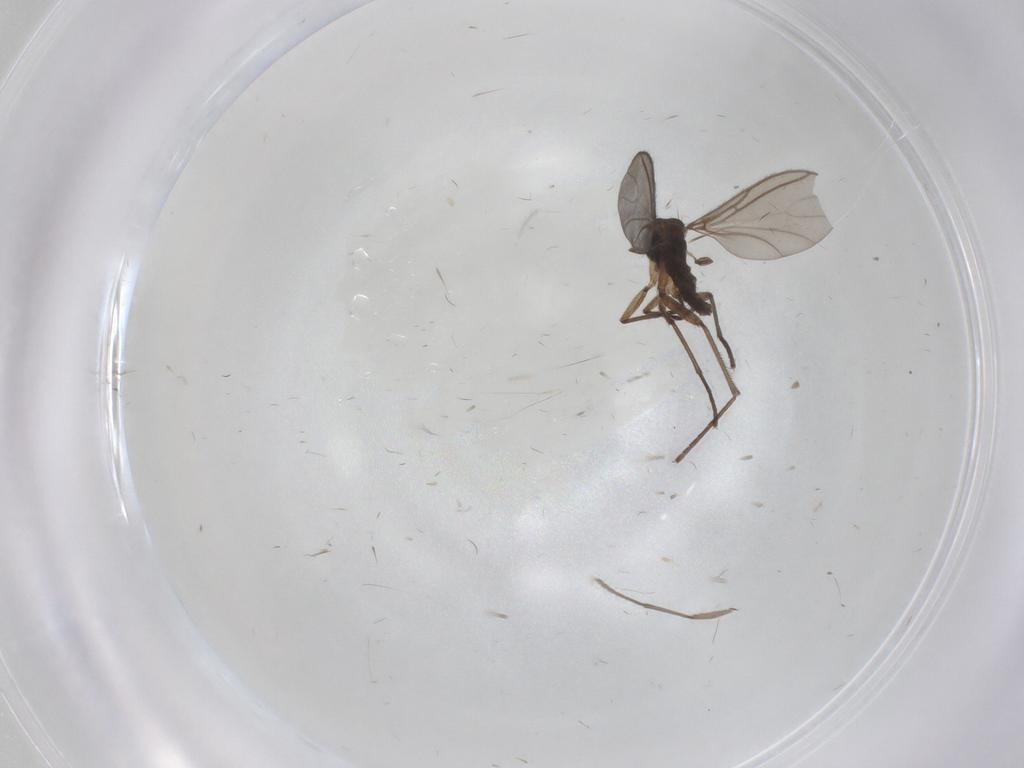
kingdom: Animalia
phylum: Arthropoda
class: Insecta
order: Diptera
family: Sciaridae
